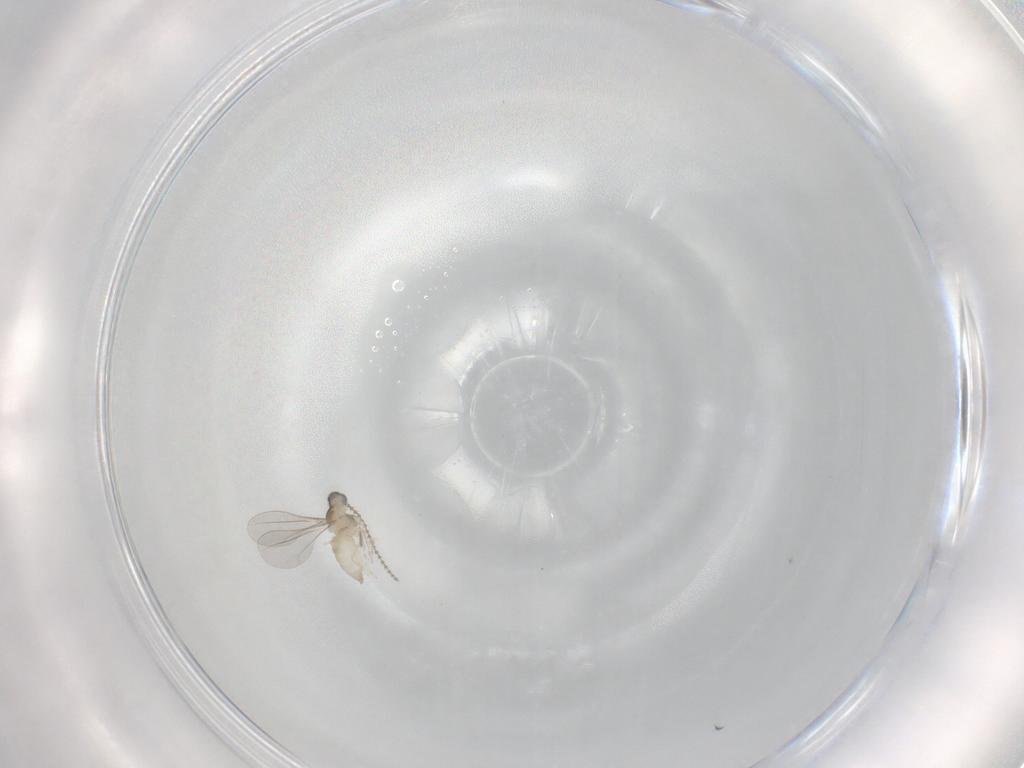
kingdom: Animalia
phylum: Arthropoda
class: Insecta
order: Diptera
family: Cecidomyiidae
